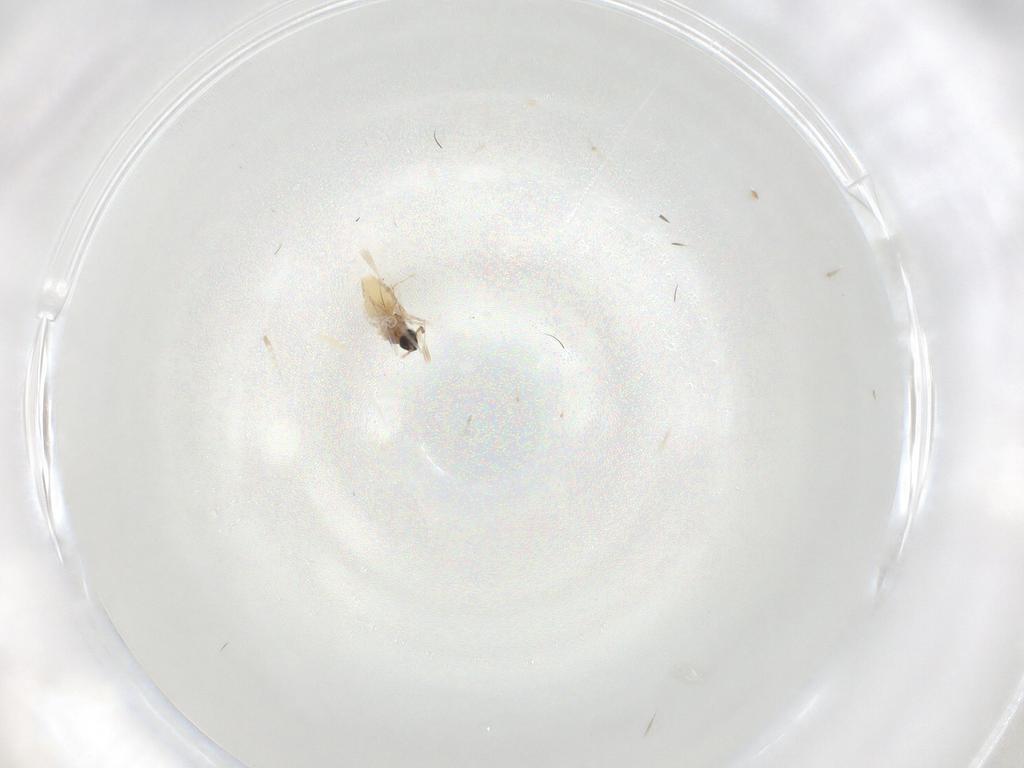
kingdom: Animalia
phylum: Arthropoda
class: Insecta
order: Diptera
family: Cecidomyiidae
